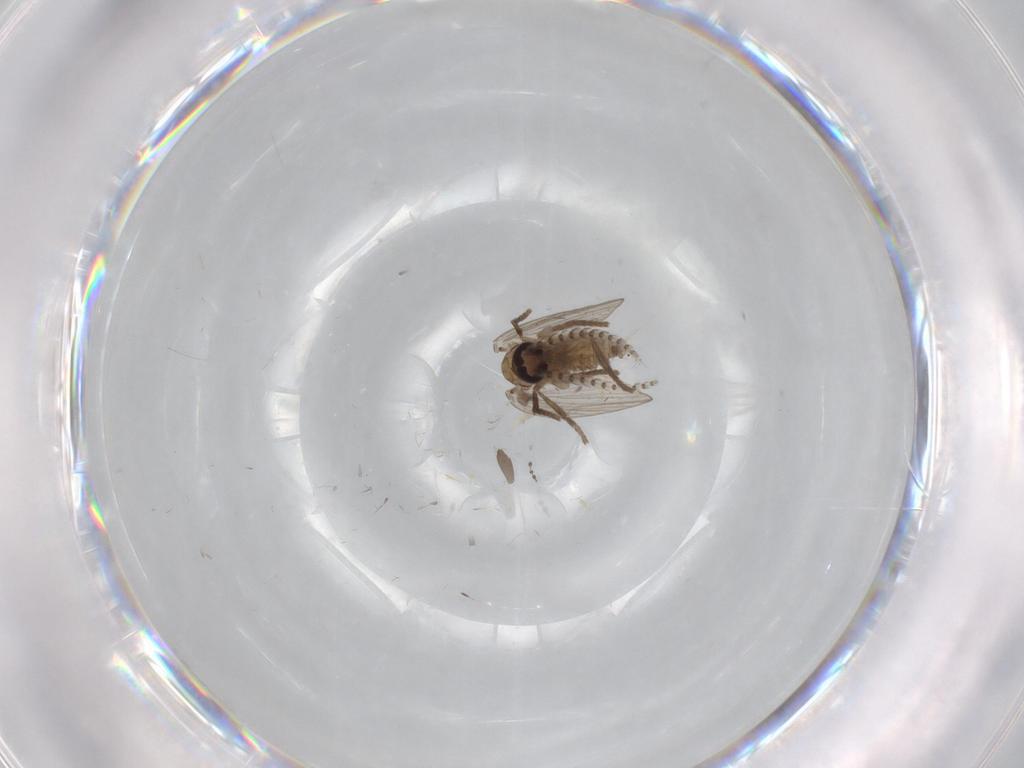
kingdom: Animalia
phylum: Arthropoda
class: Insecta
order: Diptera
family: Cecidomyiidae
